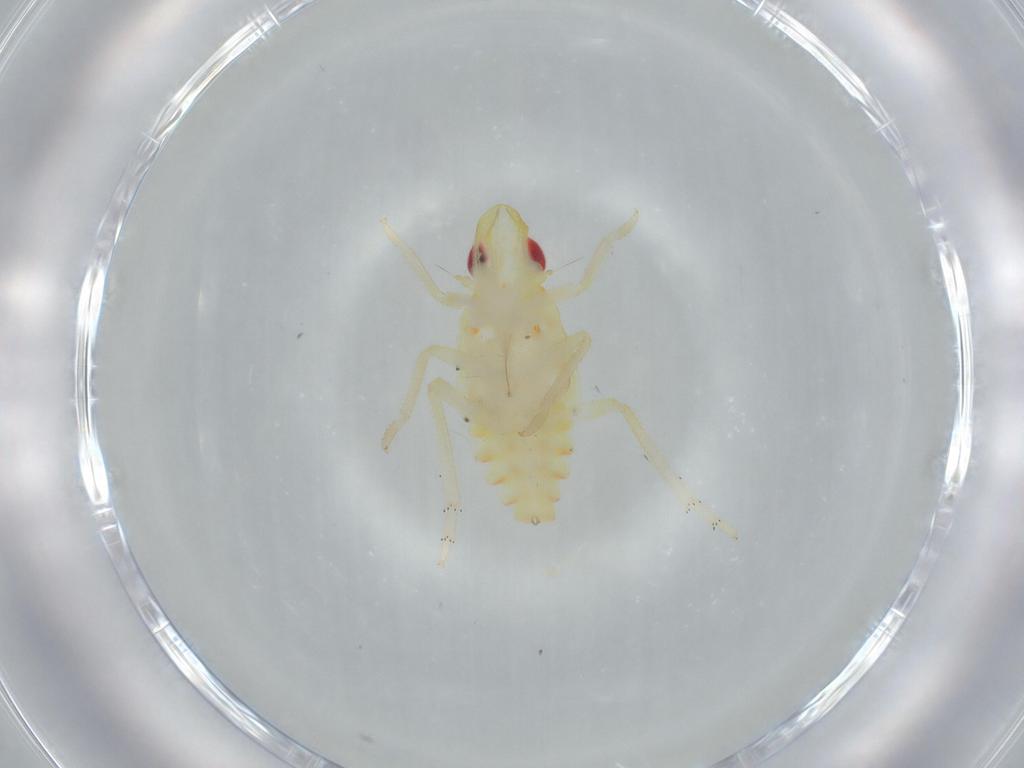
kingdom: Animalia
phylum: Arthropoda
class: Insecta
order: Hemiptera
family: Tropiduchidae
